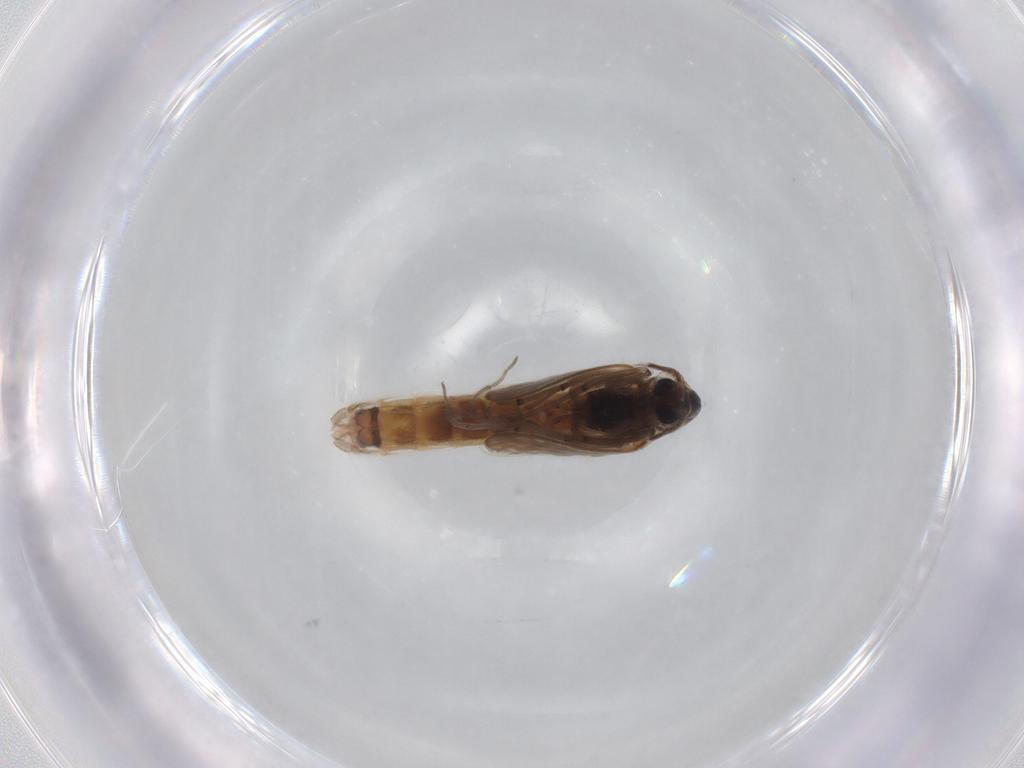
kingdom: Animalia
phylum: Arthropoda
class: Insecta
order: Diptera
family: Chironomidae
